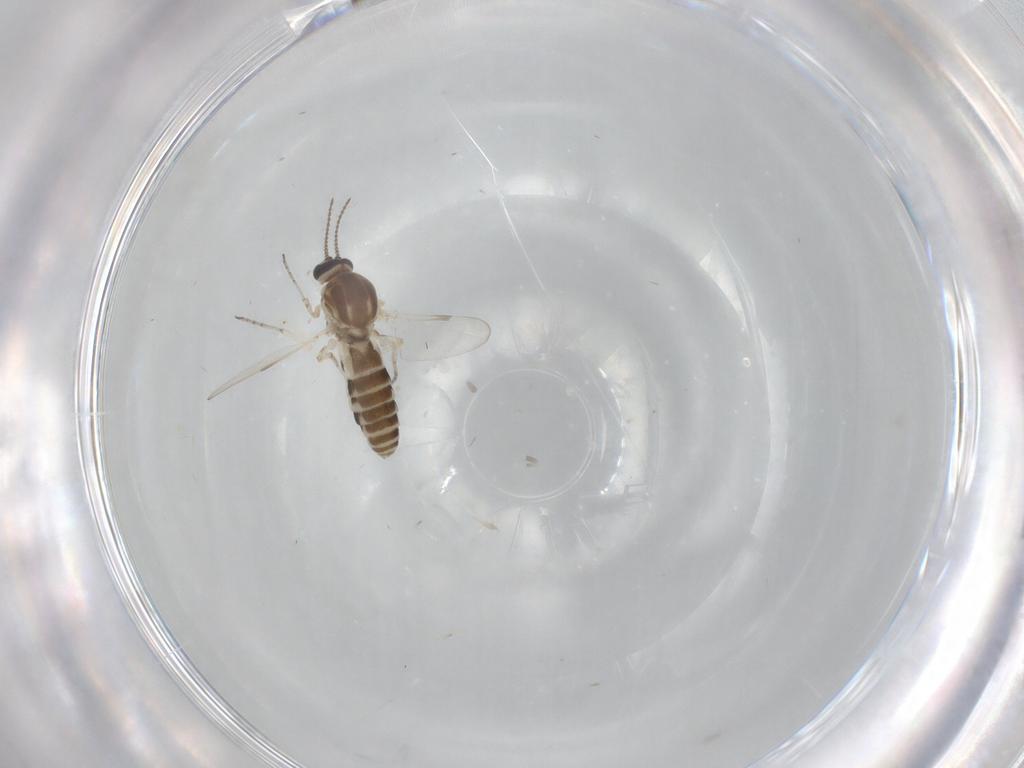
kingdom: Animalia
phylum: Arthropoda
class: Insecta
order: Diptera
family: Ceratopogonidae
